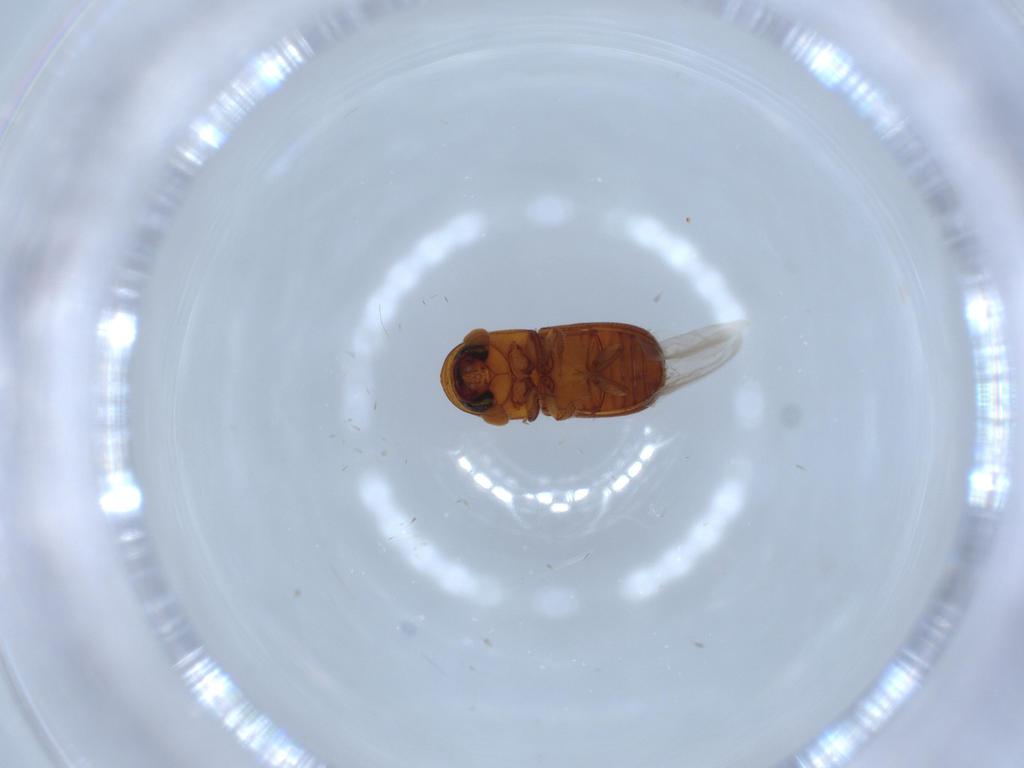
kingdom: Animalia
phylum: Arthropoda
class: Insecta
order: Coleoptera
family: Curculionidae
